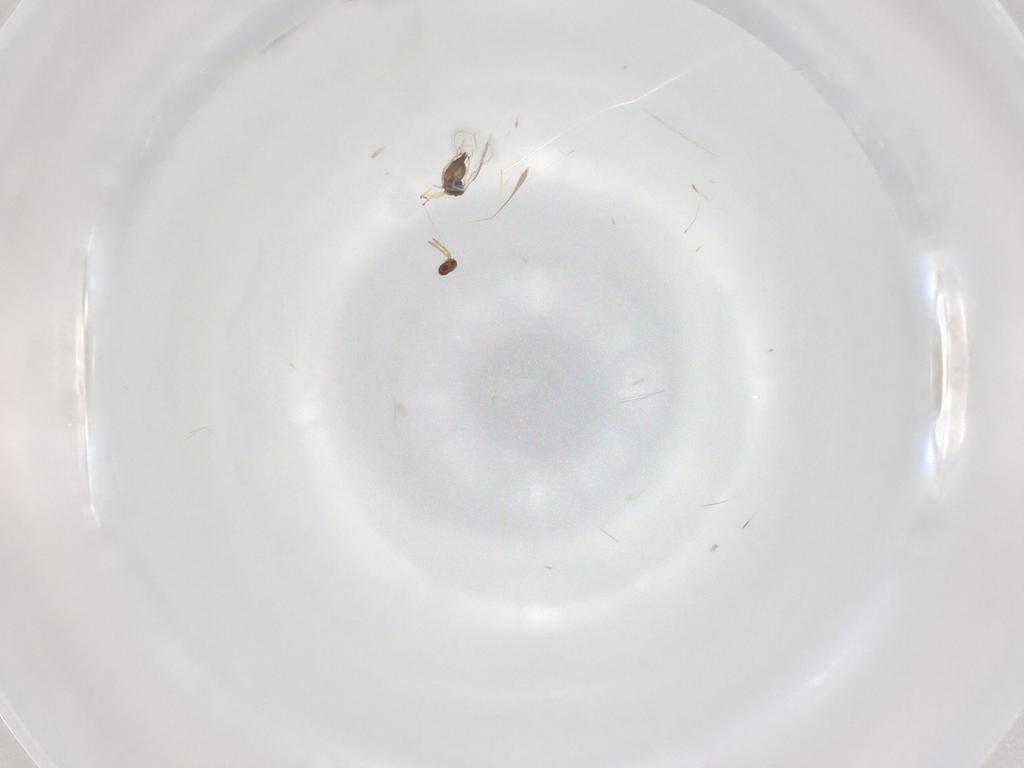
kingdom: Animalia
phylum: Arthropoda
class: Insecta
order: Hymenoptera
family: Eulophidae
